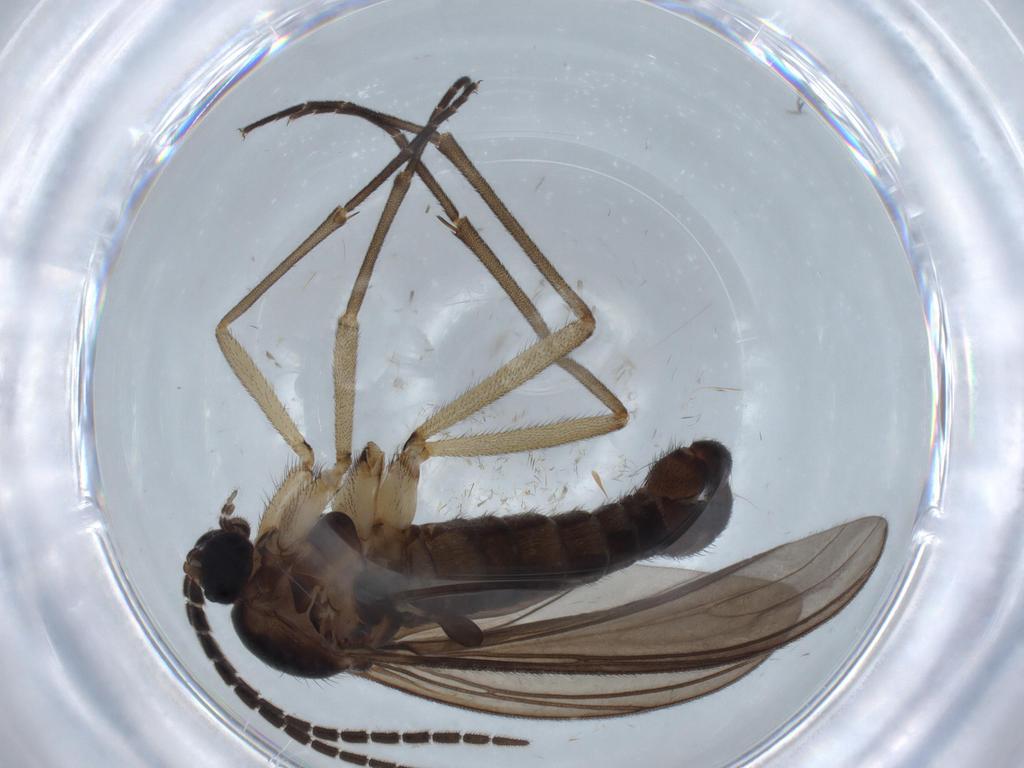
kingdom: Animalia
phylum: Arthropoda
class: Insecta
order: Diptera
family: Sciaridae
